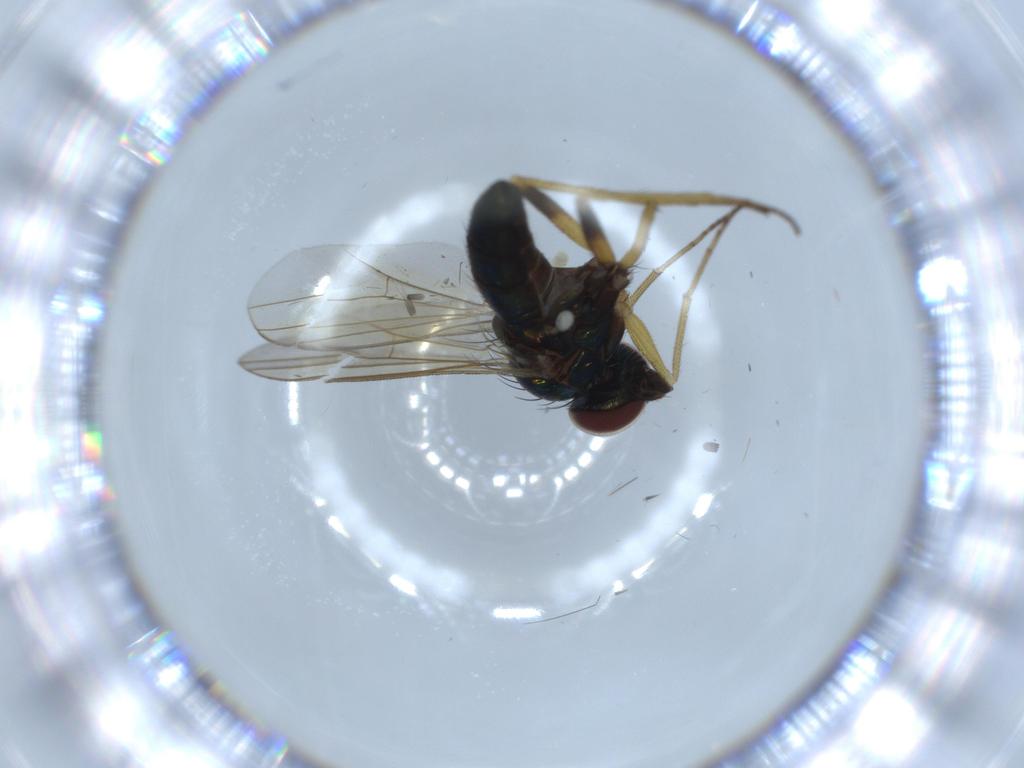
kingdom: Animalia
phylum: Arthropoda
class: Insecta
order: Diptera
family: Dolichopodidae
